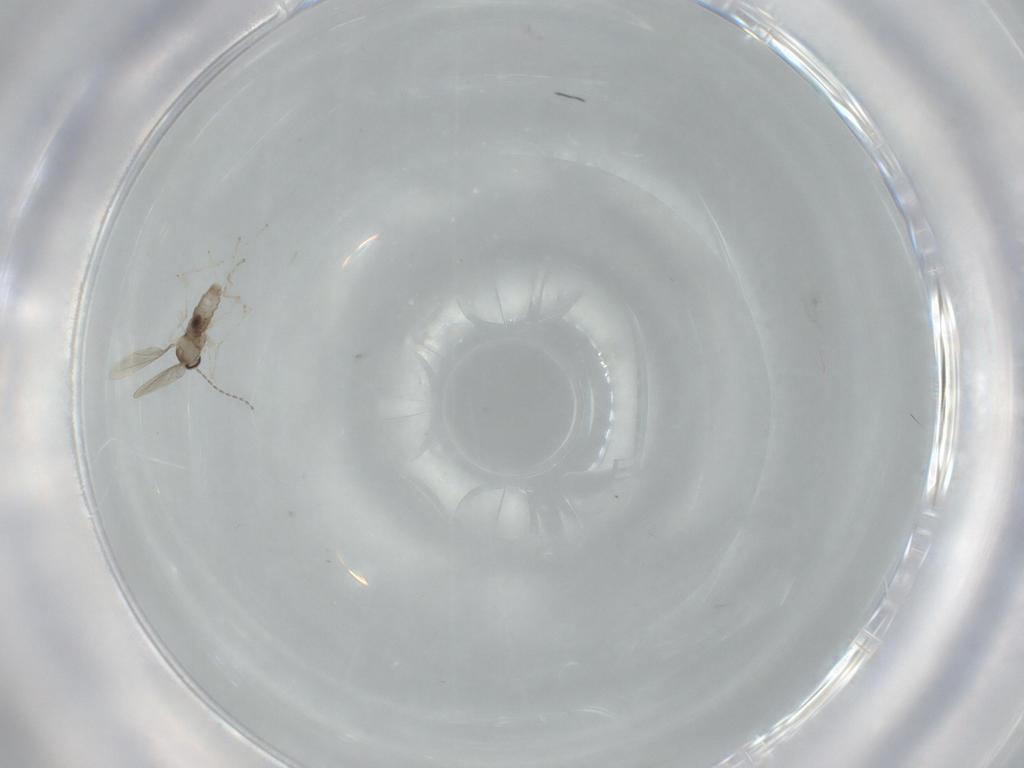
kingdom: Animalia
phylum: Arthropoda
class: Insecta
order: Diptera
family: Cecidomyiidae
